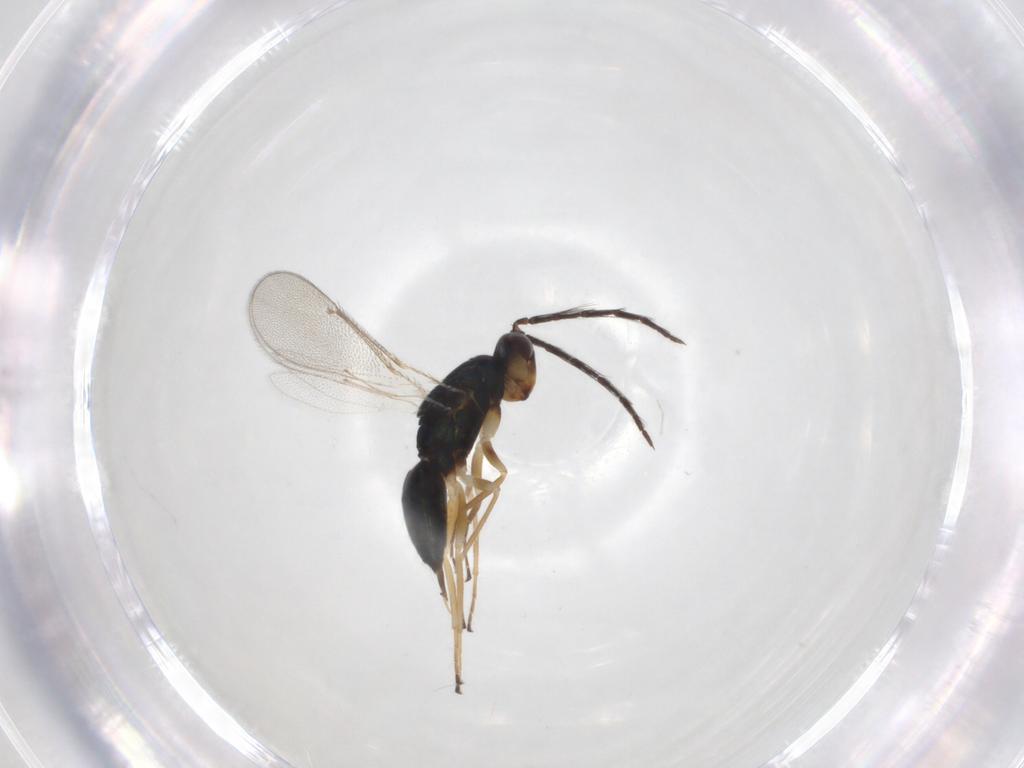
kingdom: Animalia
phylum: Arthropoda
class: Insecta
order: Hymenoptera
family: Eulophidae
